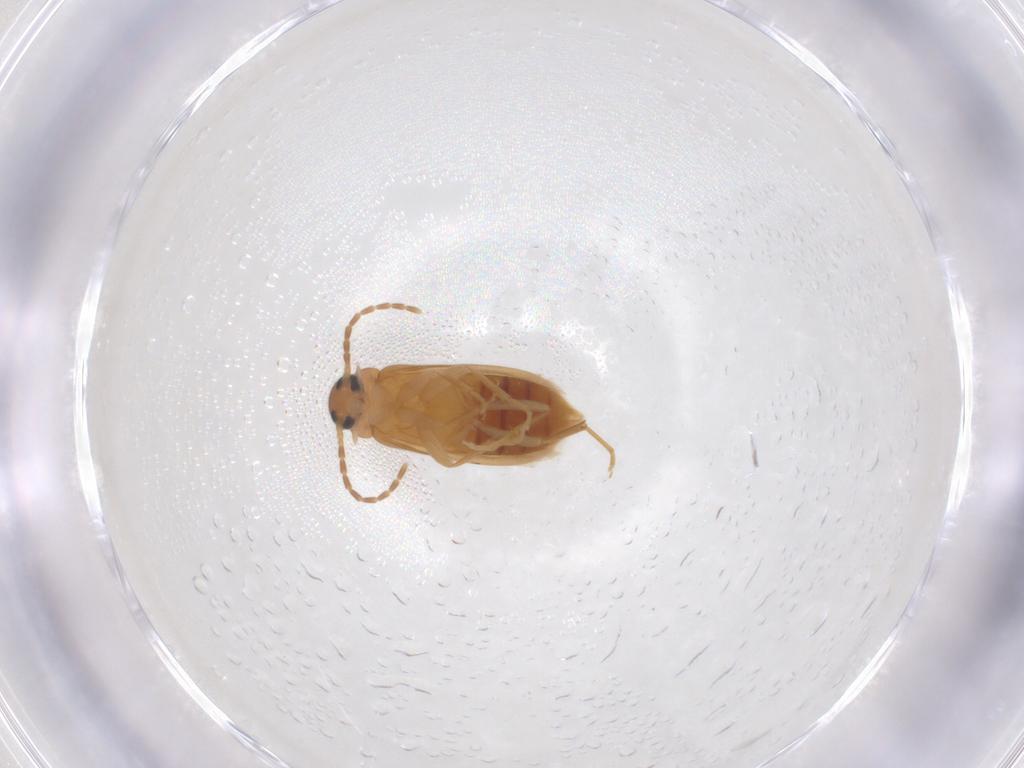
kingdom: Animalia
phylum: Arthropoda
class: Insecta
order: Coleoptera
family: Scraptiidae
